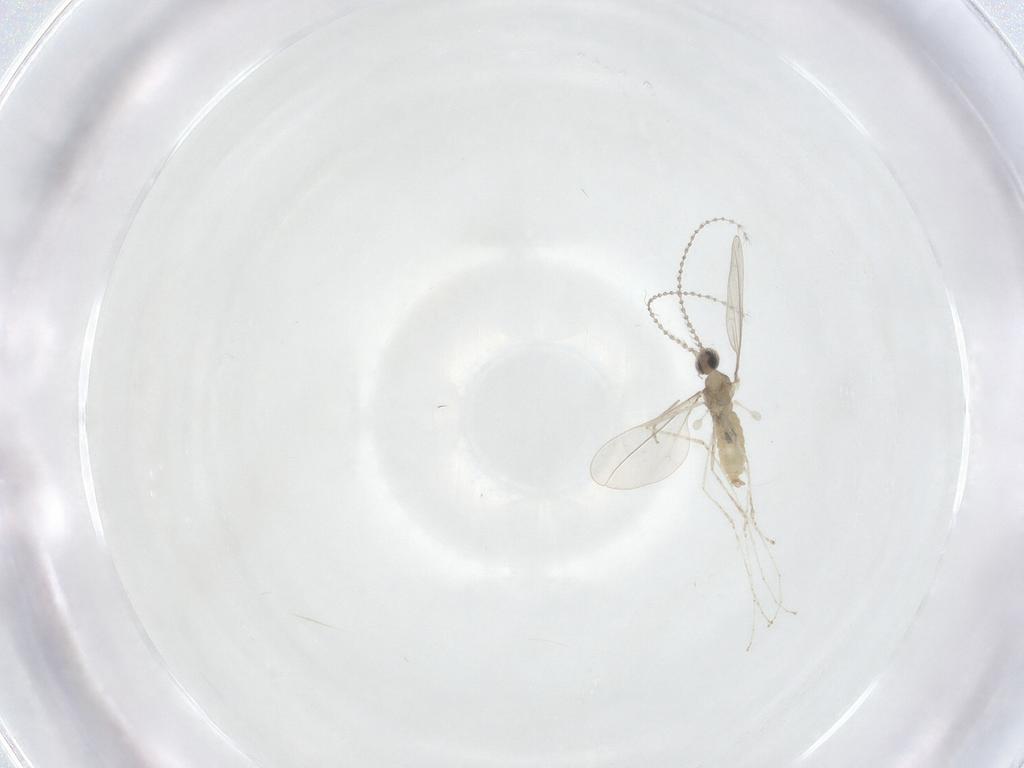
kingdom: Animalia
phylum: Arthropoda
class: Insecta
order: Diptera
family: Cecidomyiidae
